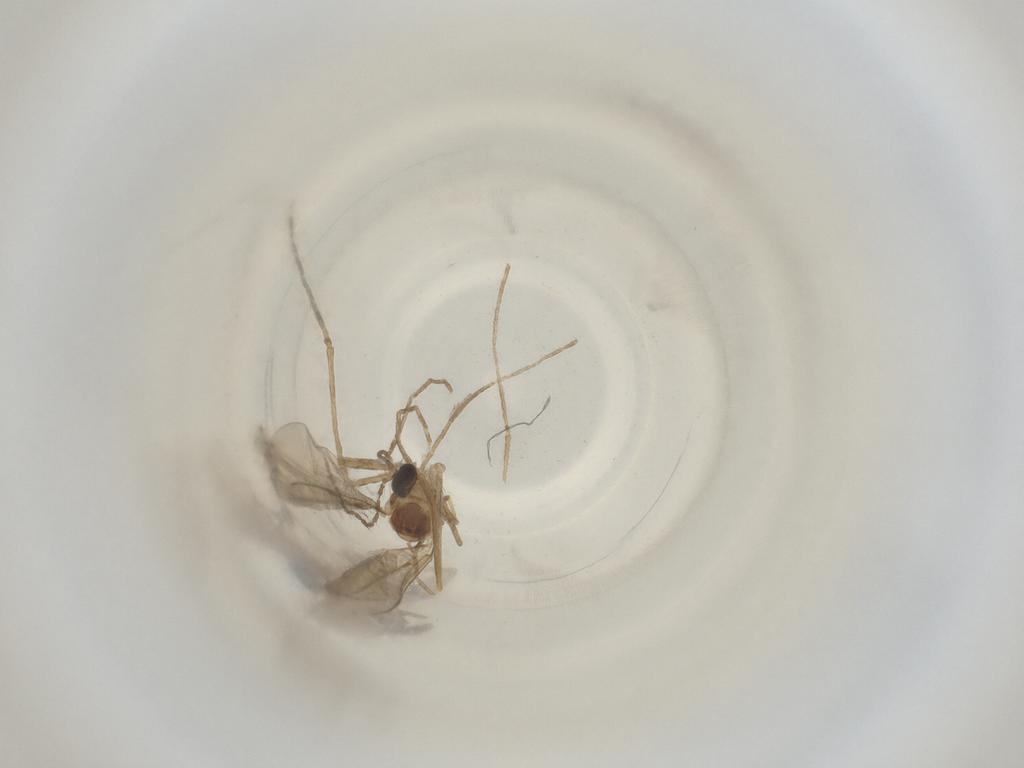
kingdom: Animalia
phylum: Arthropoda
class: Insecta
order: Diptera
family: Cecidomyiidae
